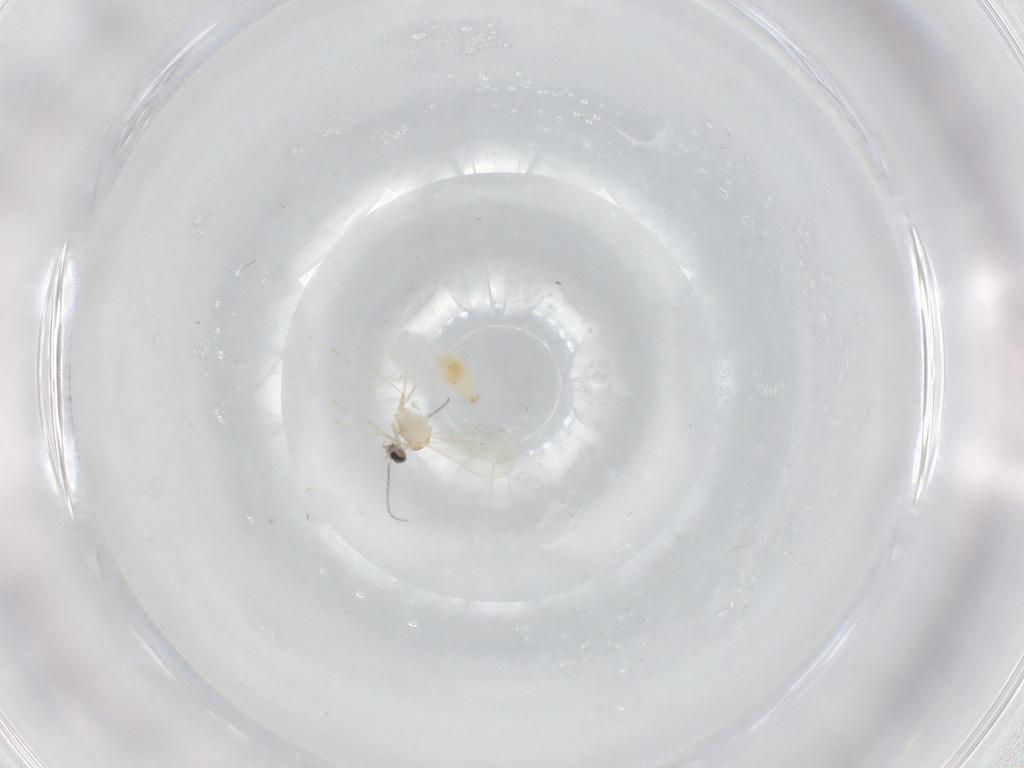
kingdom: Animalia
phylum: Arthropoda
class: Insecta
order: Diptera
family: Cecidomyiidae
